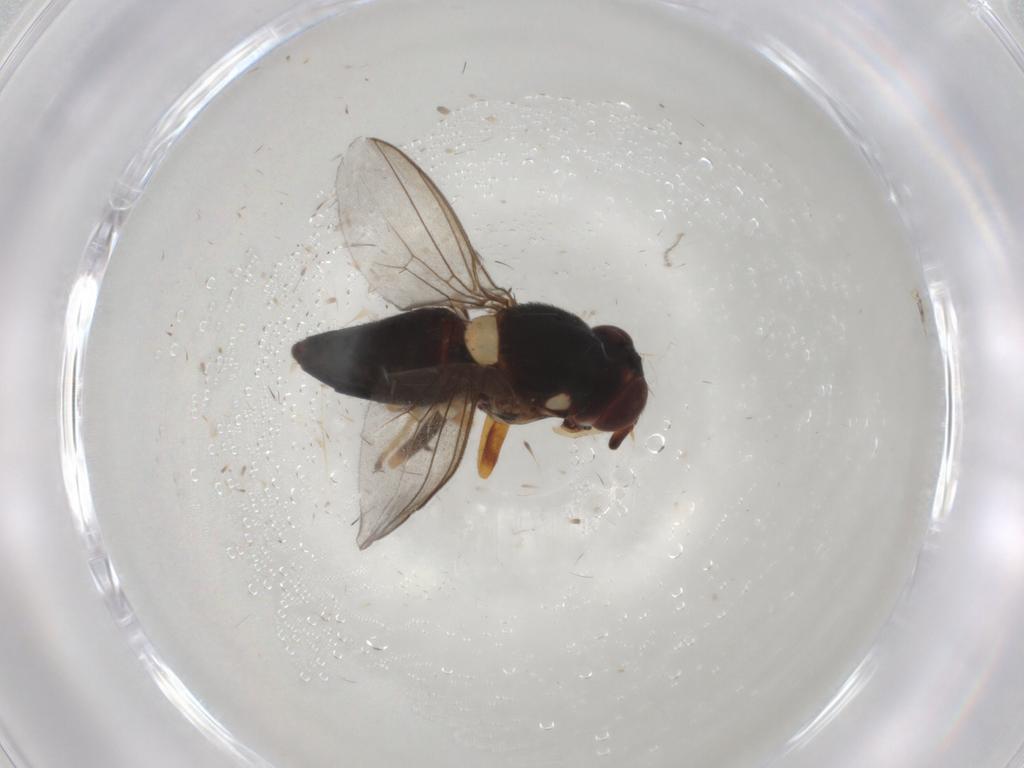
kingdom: Animalia
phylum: Arthropoda
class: Insecta
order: Diptera
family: Chloropidae
